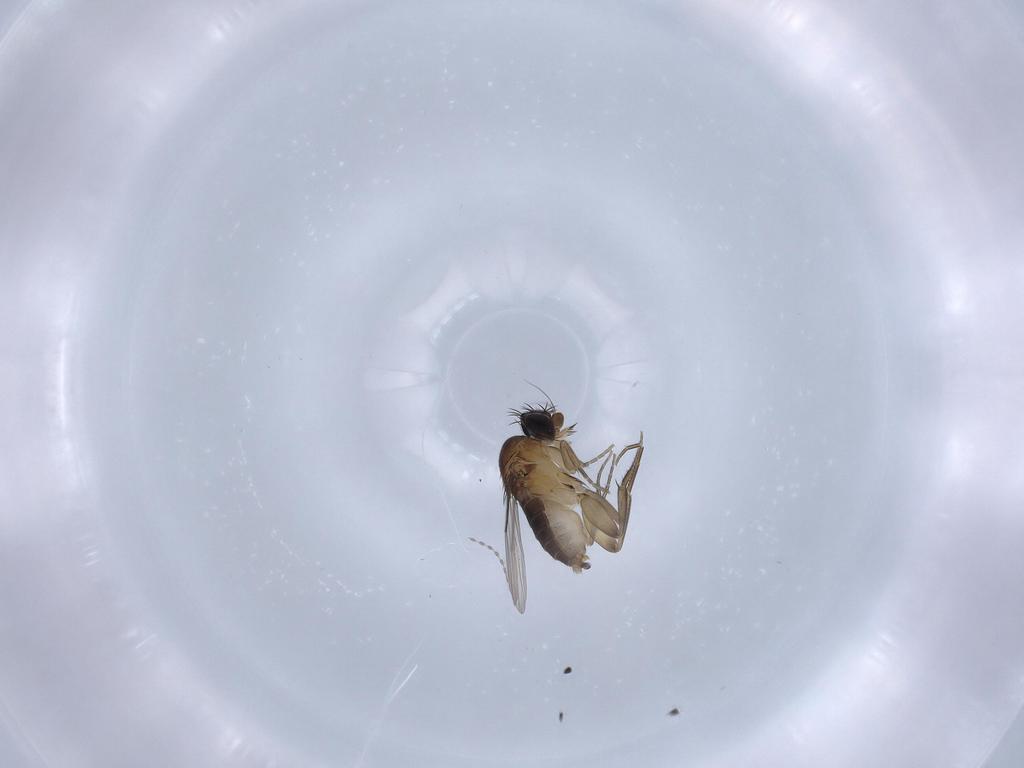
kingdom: Animalia
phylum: Arthropoda
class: Insecta
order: Diptera
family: Phoridae
